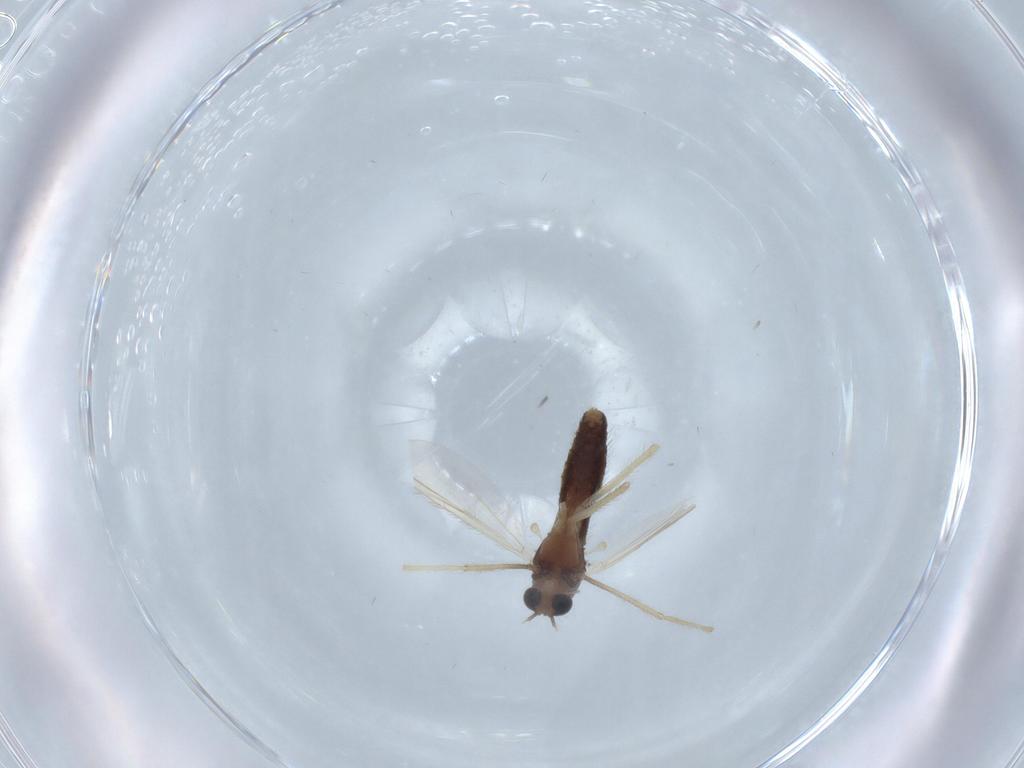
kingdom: Animalia
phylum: Arthropoda
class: Insecta
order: Diptera
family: Chironomidae
